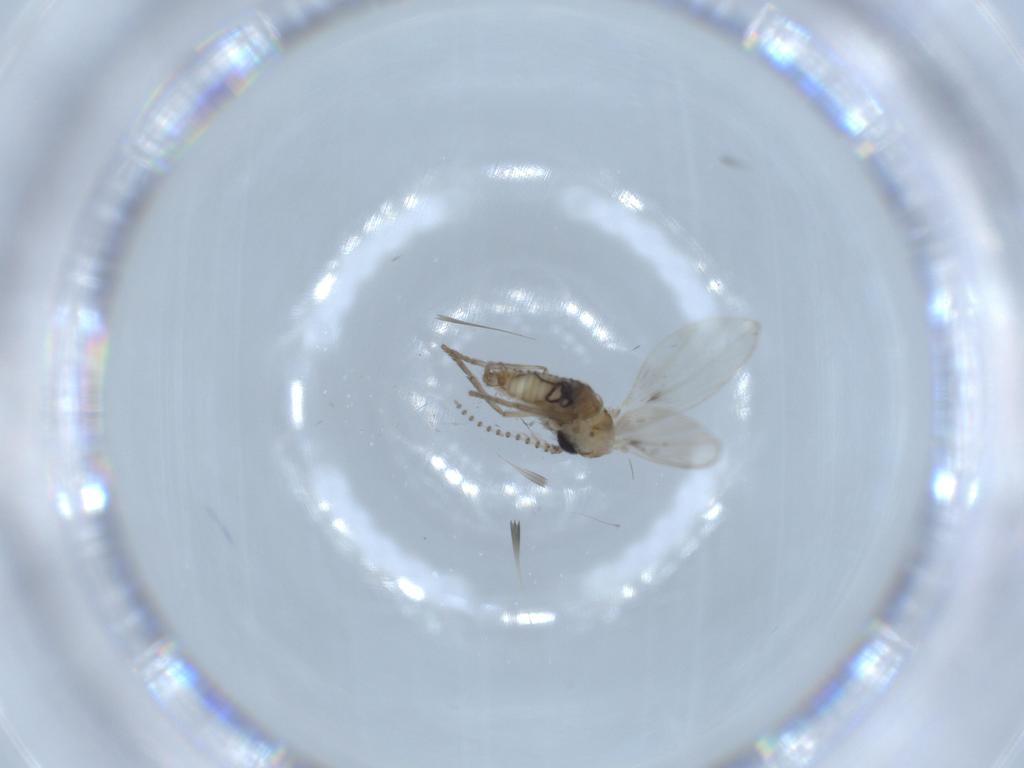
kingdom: Animalia
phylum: Arthropoda
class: Insecta
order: Diptera
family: Psychodidae
